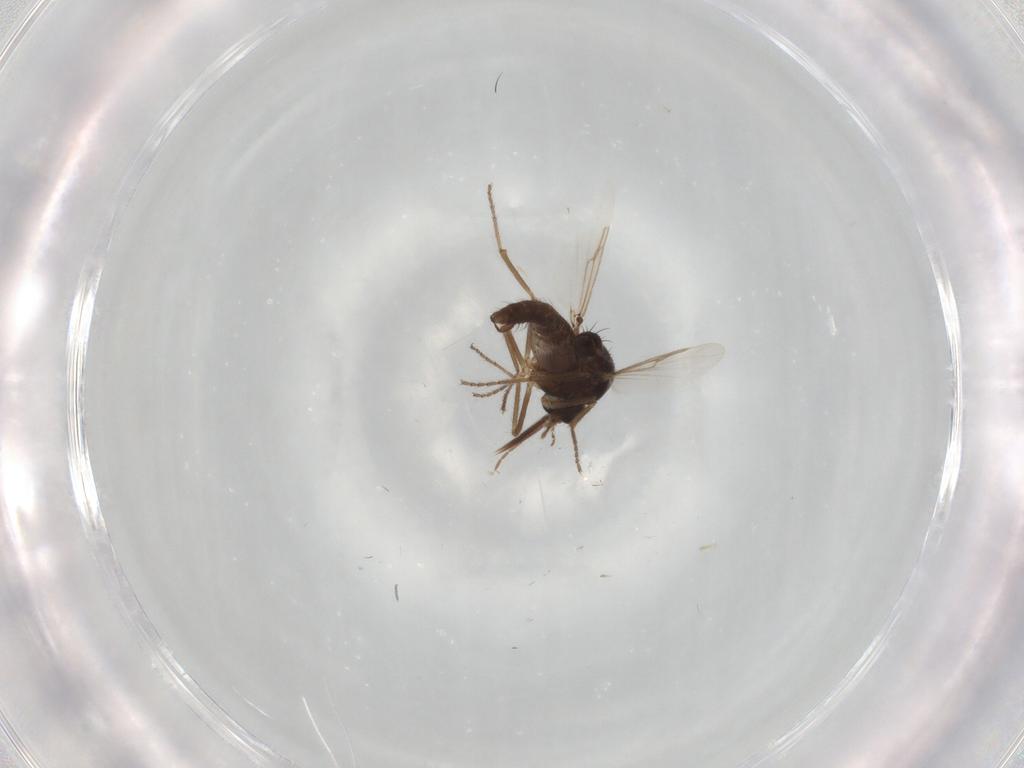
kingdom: Animalia
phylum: Arthropoda
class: Insecta
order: Diptera
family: Ceratopogonidae
